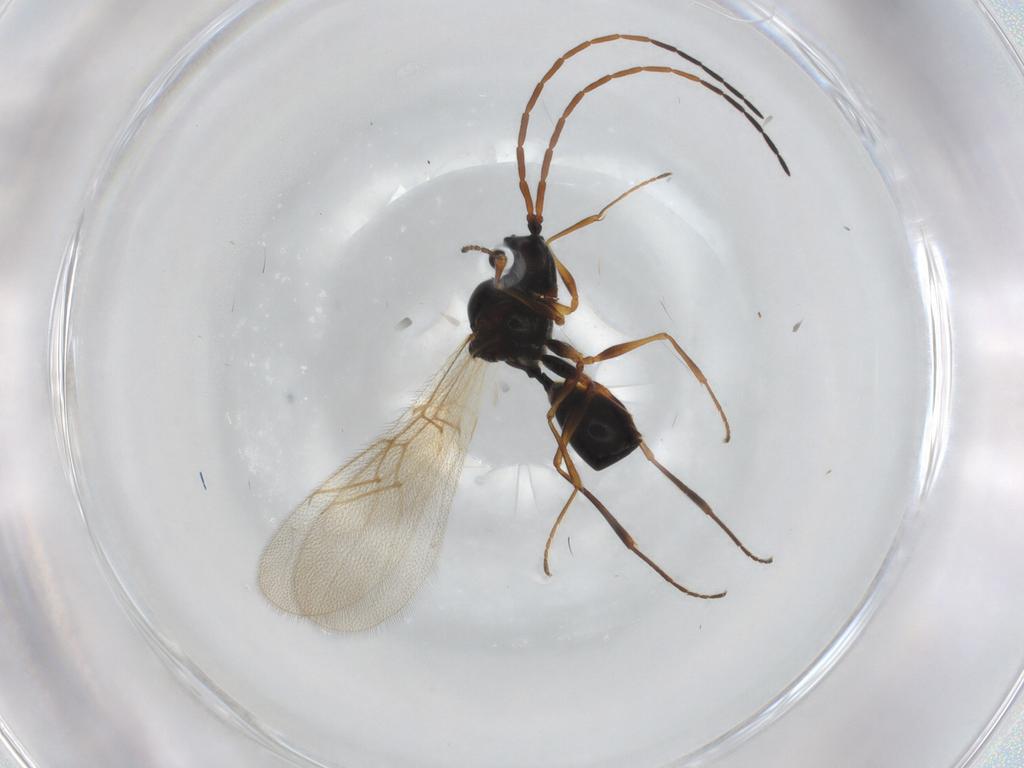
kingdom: Animalia
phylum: Arthropoda
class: Insecta
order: Hymenoptera
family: Figitidae
